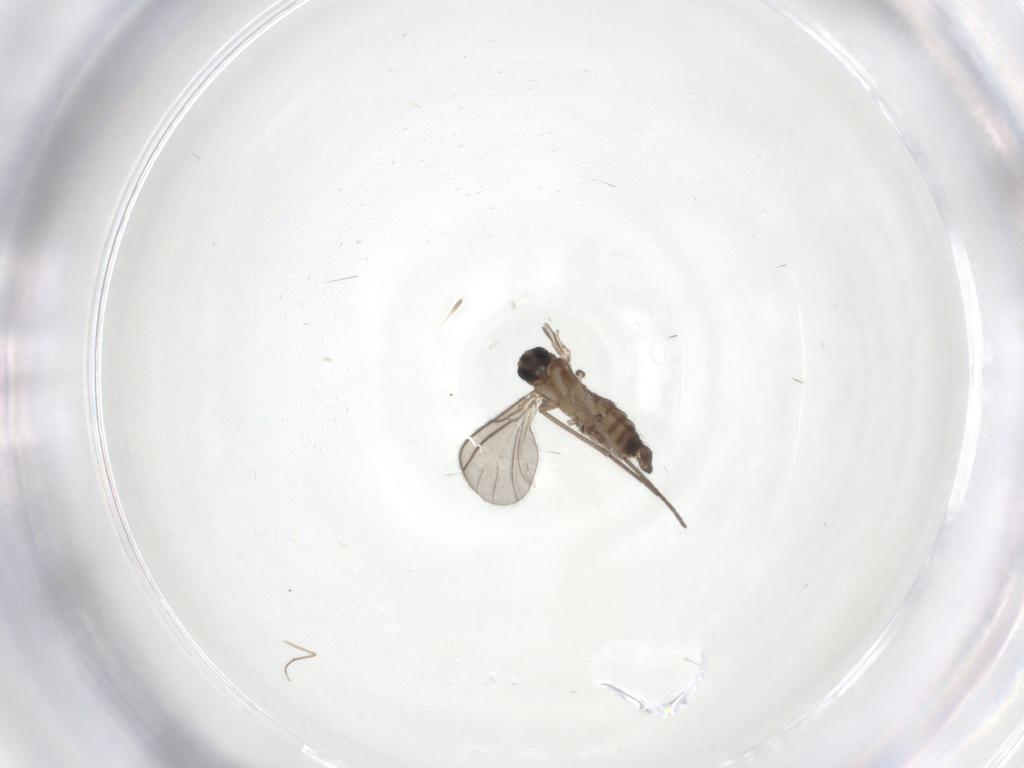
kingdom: Animalia
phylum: Arthropoda
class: Insecta
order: Diptera
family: Sciaridae
